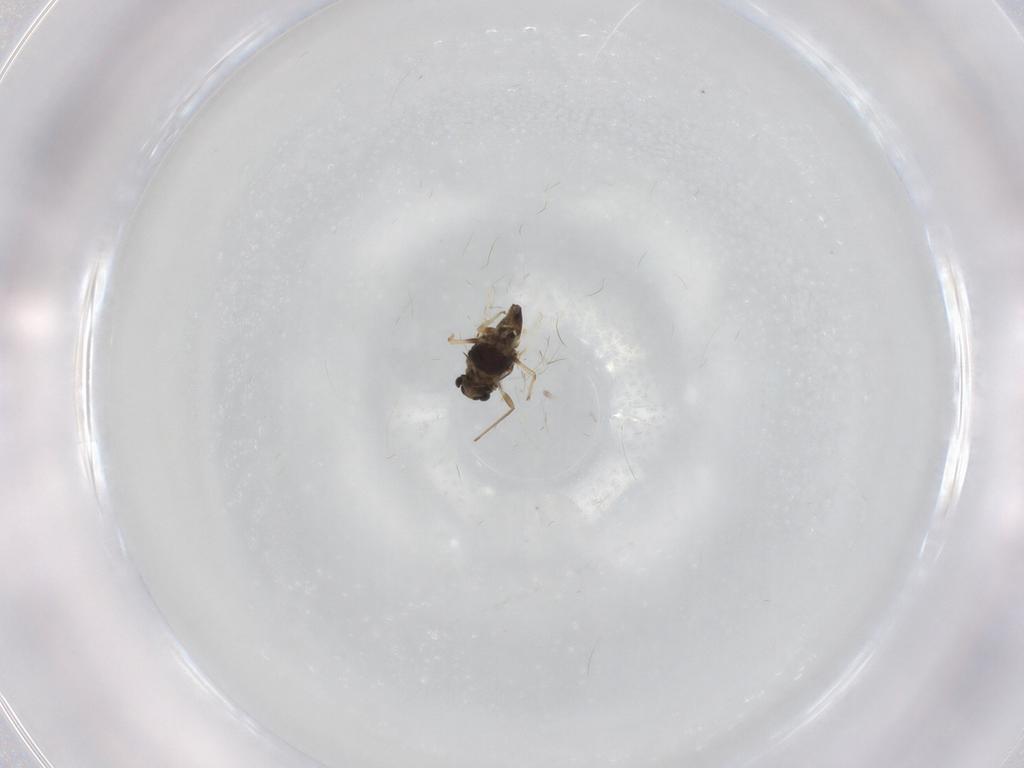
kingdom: Animalia
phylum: Arthropoda
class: Insecta
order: Diptera
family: Chironomidae
